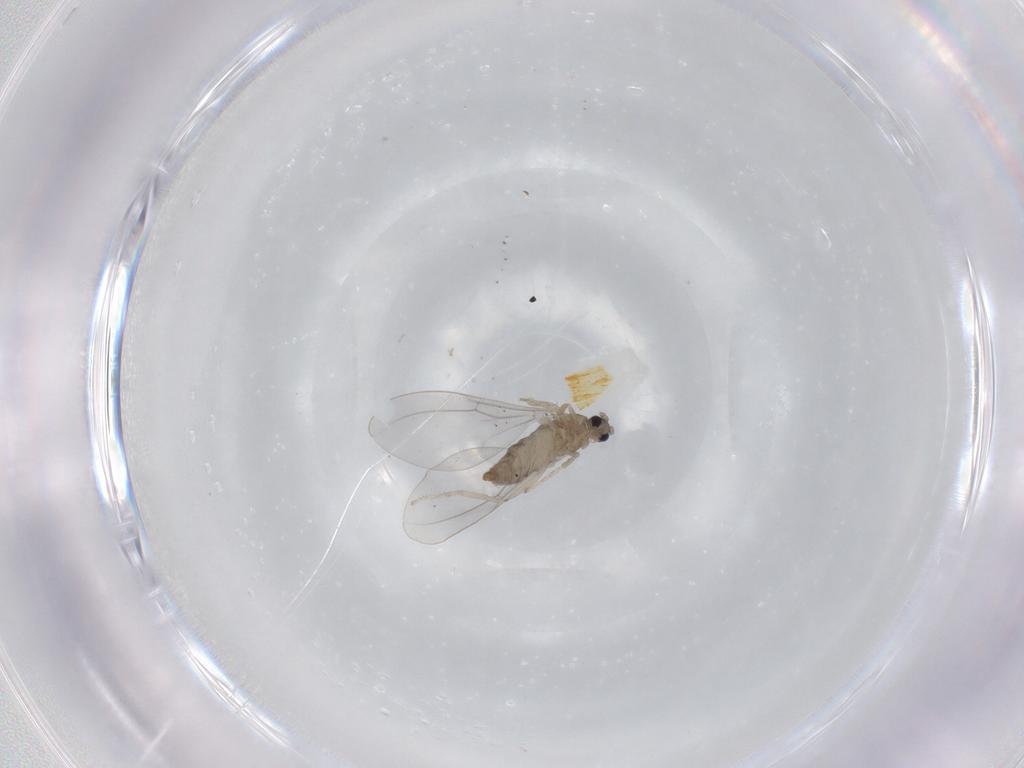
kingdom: Animalia
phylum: Arthropoda
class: Insecta
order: Diptera
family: Cecidomyiidae
